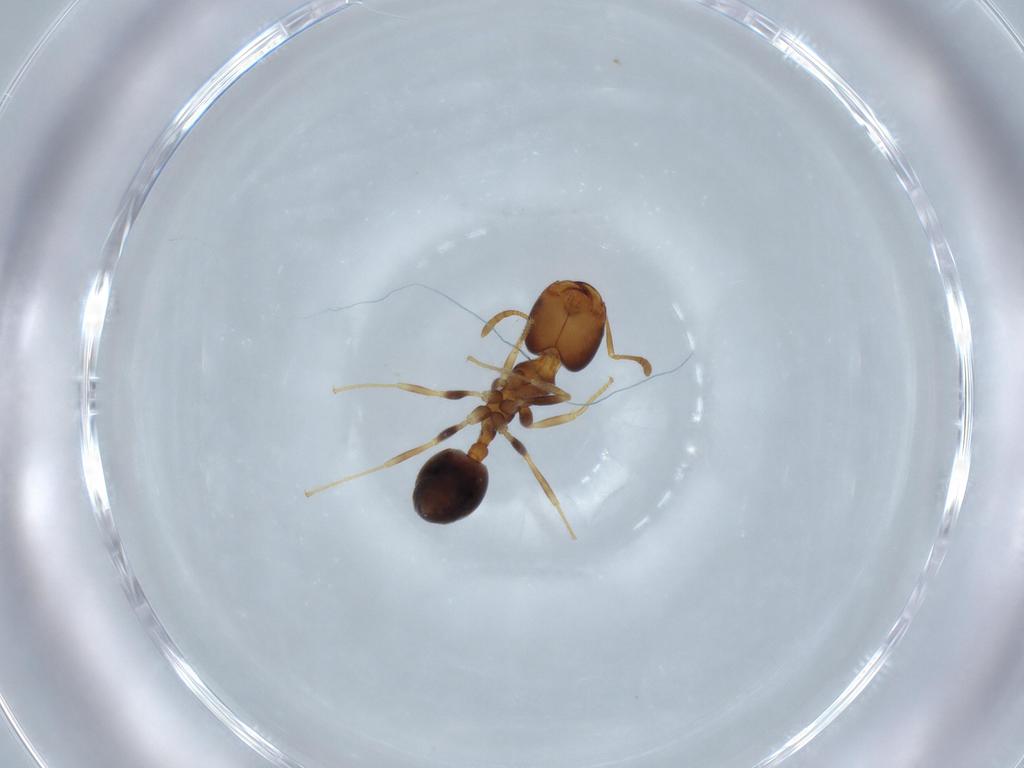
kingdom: Animalia
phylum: Arthropoda
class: Insecta
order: Hymenoptera
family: Formicidae
